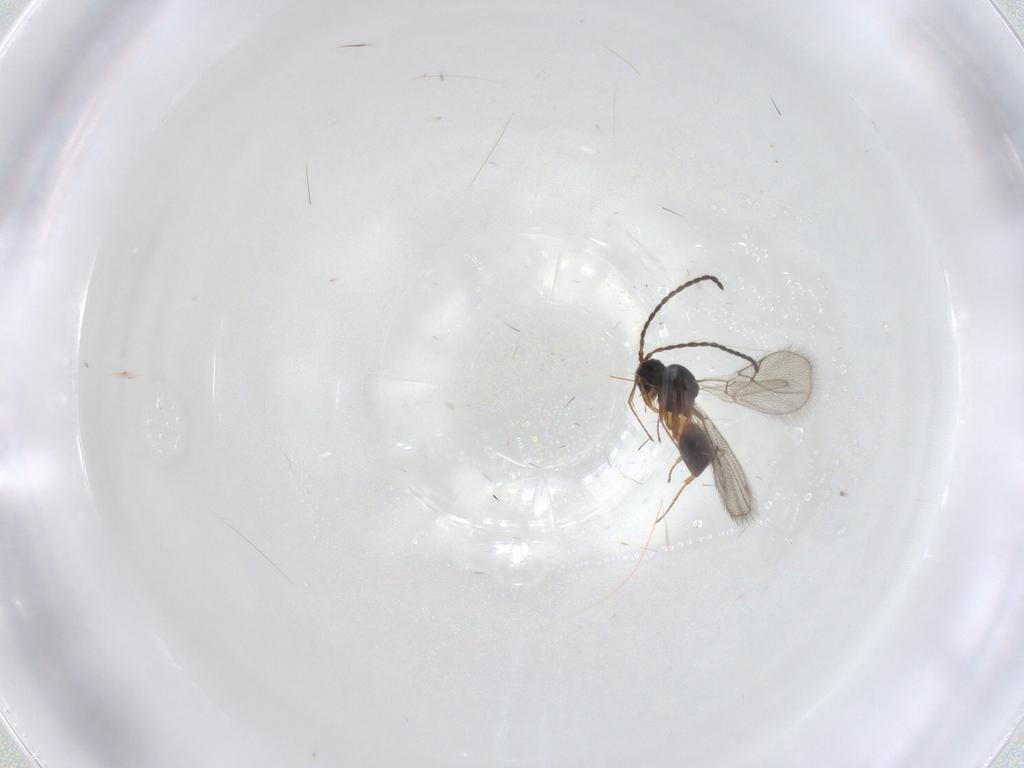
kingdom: Animalia
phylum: Arthropoda
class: Insecta
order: Hymenoptera
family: Figitidae
